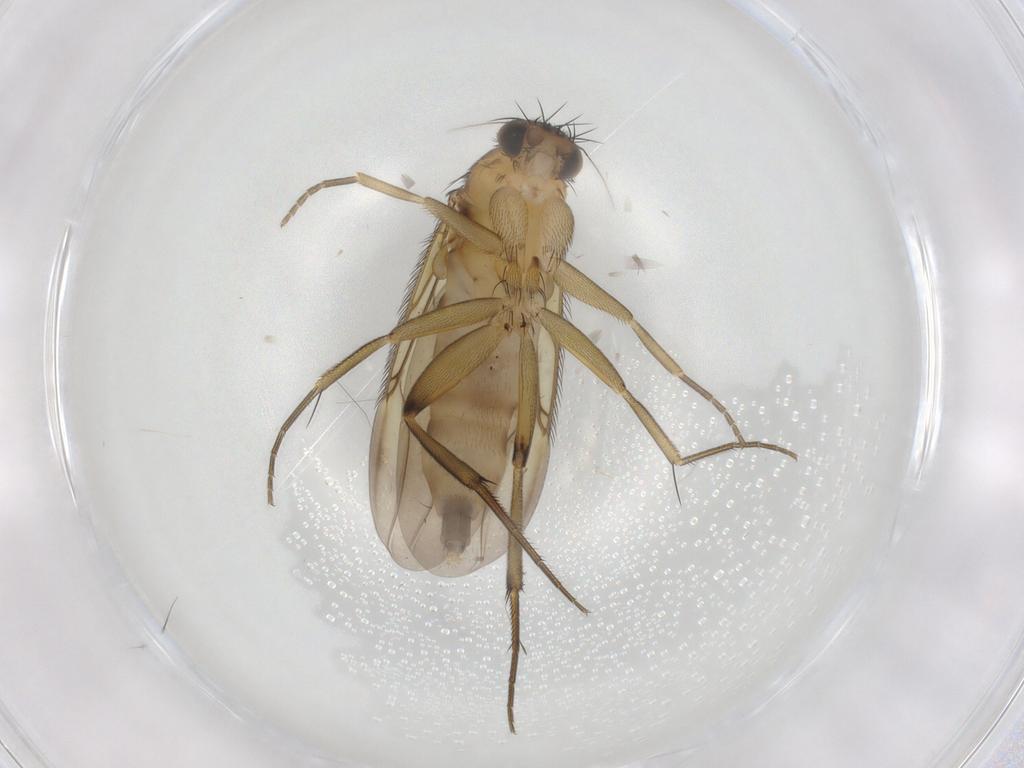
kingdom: Animalia
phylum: Arthropoda
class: Insecta
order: Diptera
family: Phoridae
